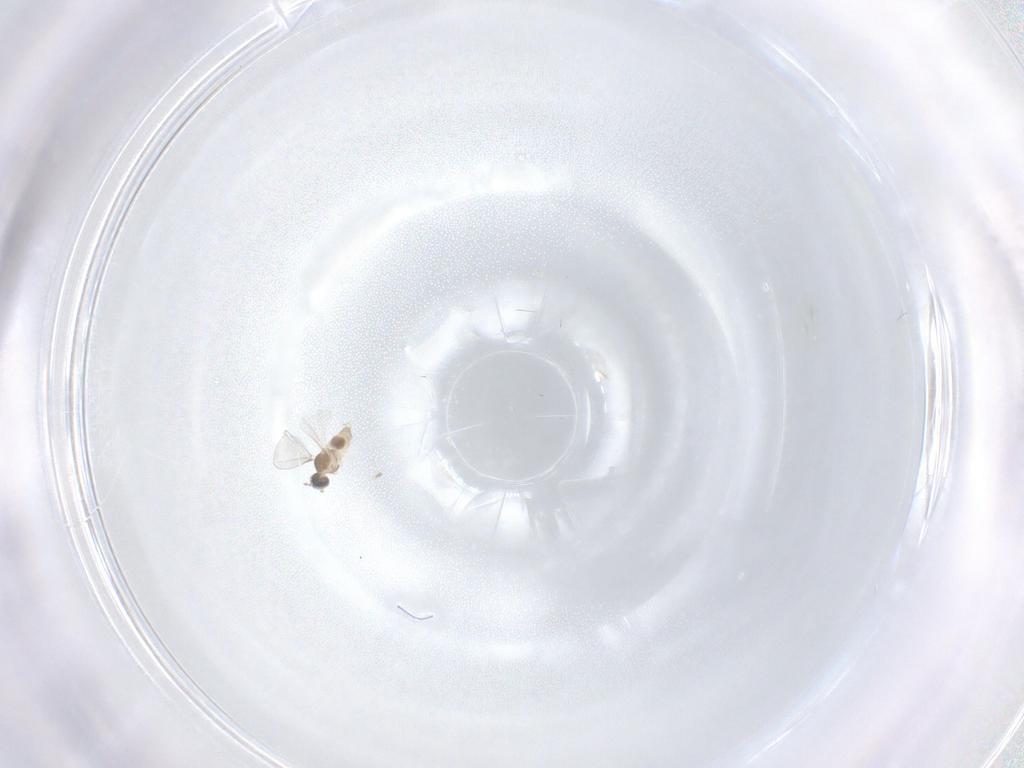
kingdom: Animalia
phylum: Arthropoda
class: Insecta
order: Diptera
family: Cecidomyiidae
